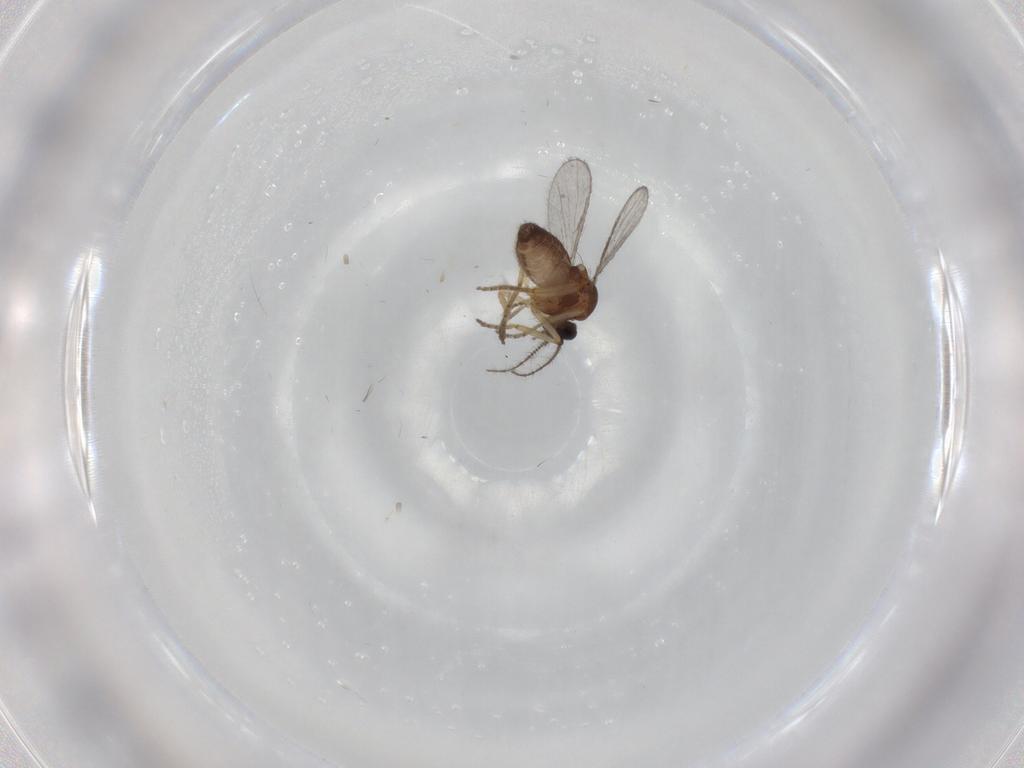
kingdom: Animalia
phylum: Arthropoda
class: Insecta
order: Diptera
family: Ceratopogonidae
